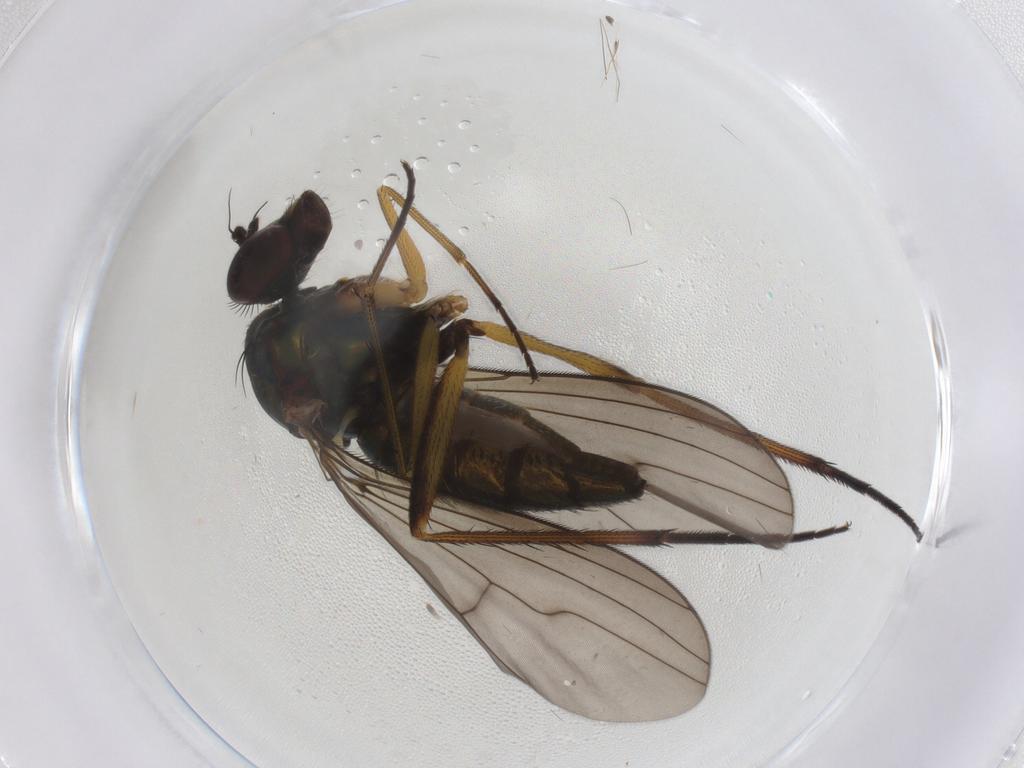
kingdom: Animalia
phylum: Arthropoda
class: Insecta
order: Diptera
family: Dolichopodidae
